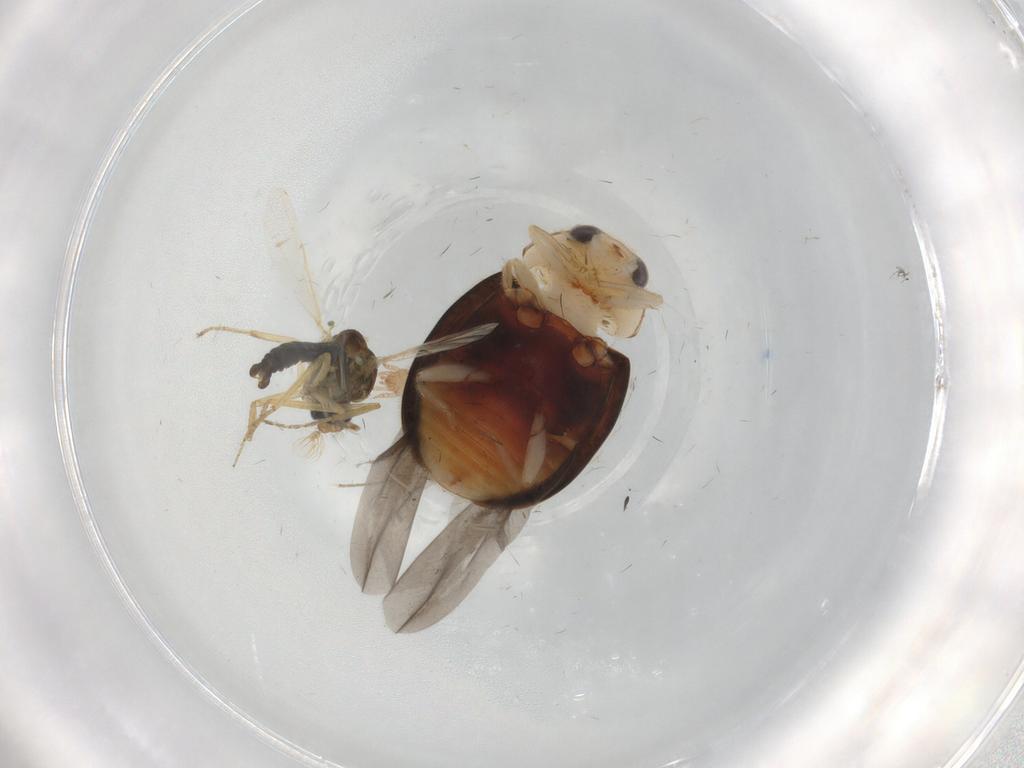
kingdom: Animalia
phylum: Arthropoda
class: Insecta
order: Diptera
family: Ceratopogonidae
